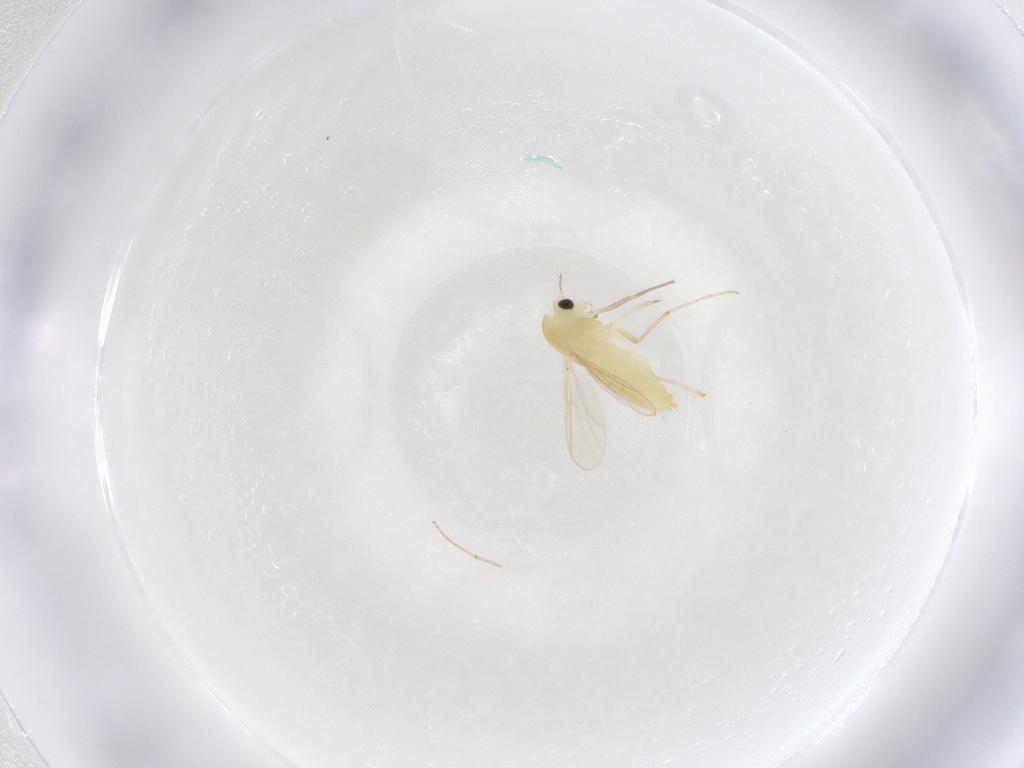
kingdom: Animalia
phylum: Arthropoda
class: Insecta
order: Diptera
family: Chironomidae
